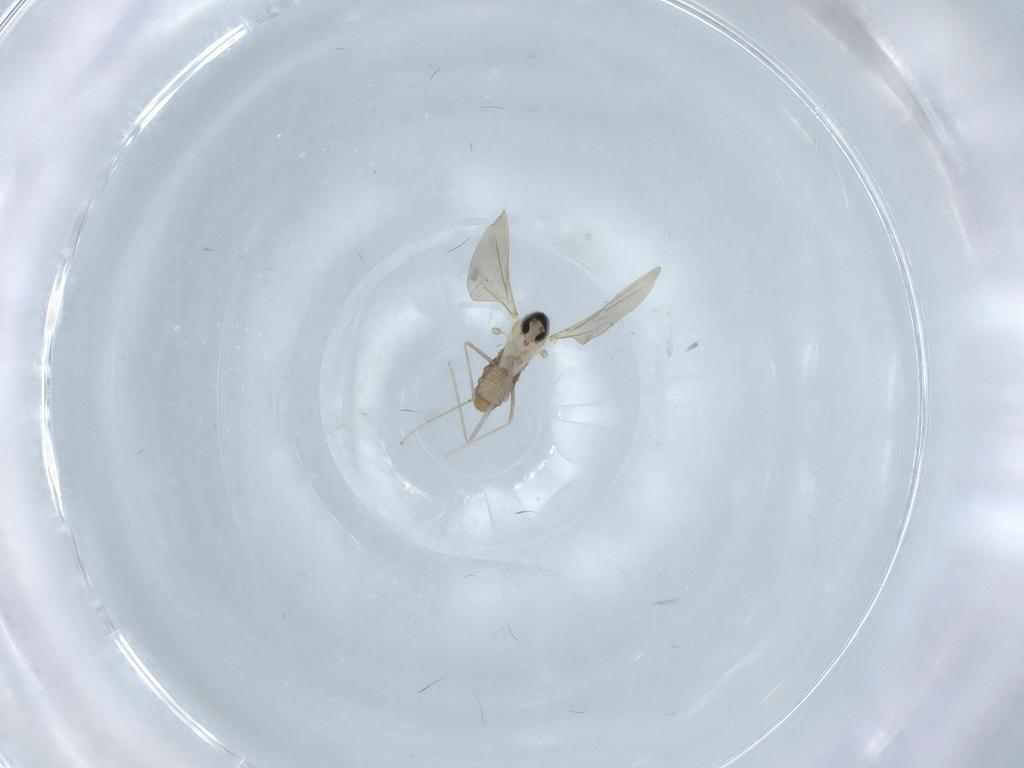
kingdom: Animalia
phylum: Arthropoda
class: Insecta
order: Diptera
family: Cecidomyiidae
